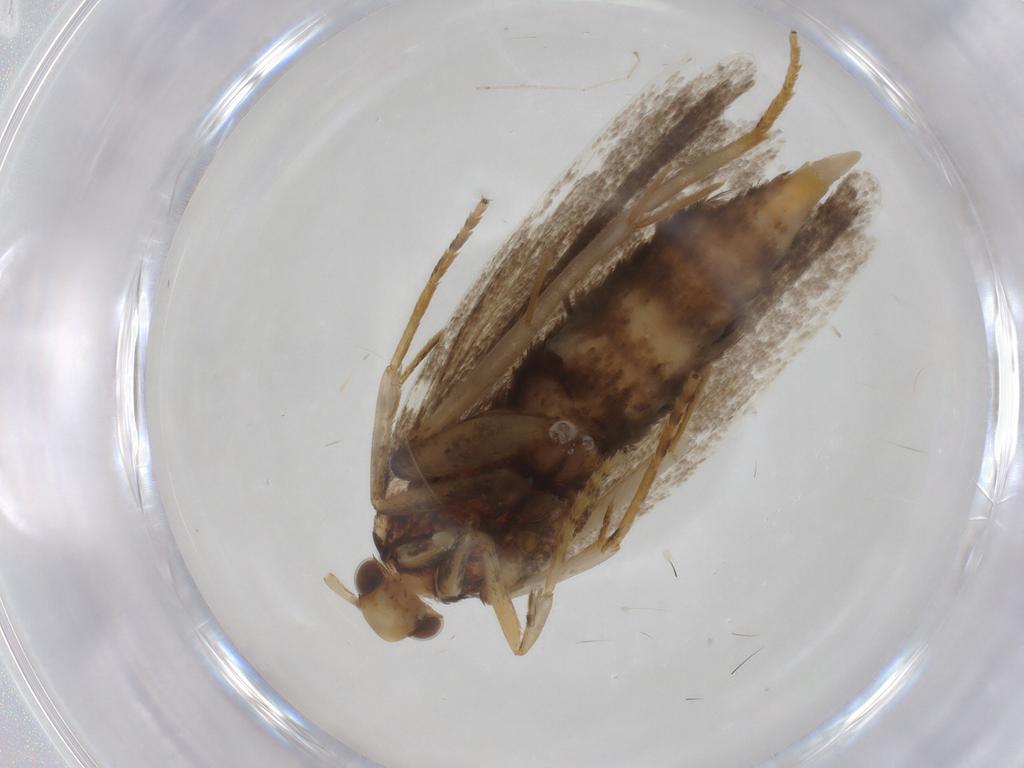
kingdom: Animalia
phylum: Arthropoda
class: Insecta
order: Lepidoptera
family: Lecithoceridae
